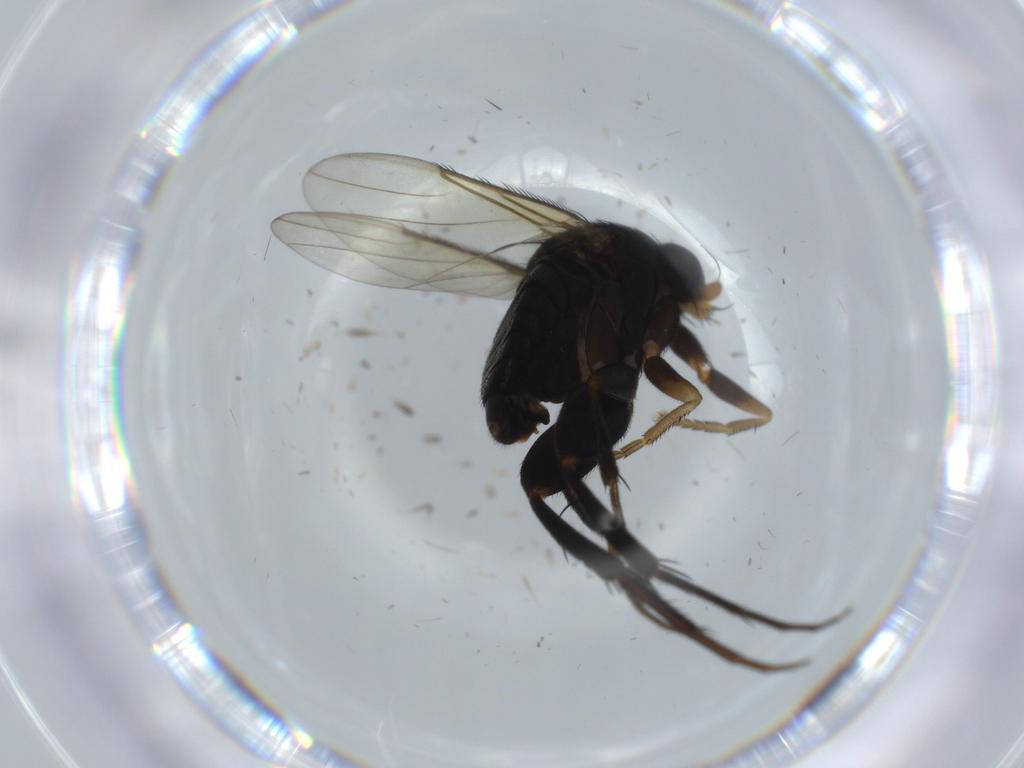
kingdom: Animalia
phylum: Arthropoda
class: Insecta
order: Diptera
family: Phoridae
